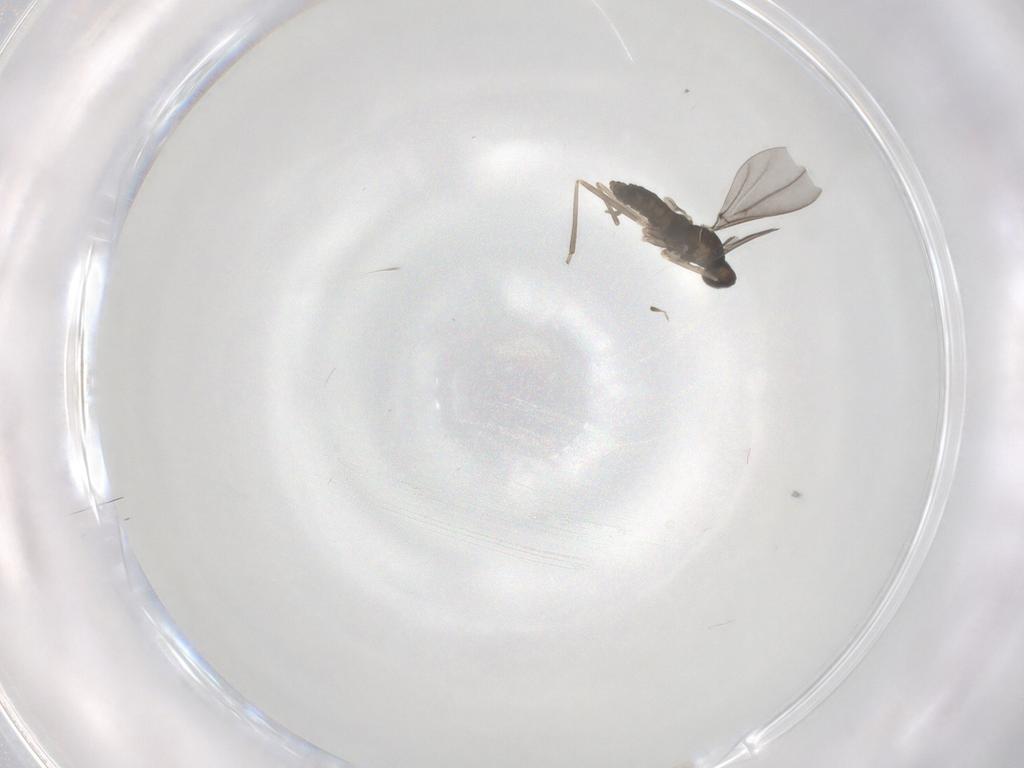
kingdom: Animalia
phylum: Arthropoda
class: Insecta
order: Diptera
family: Cecidomyiidae
